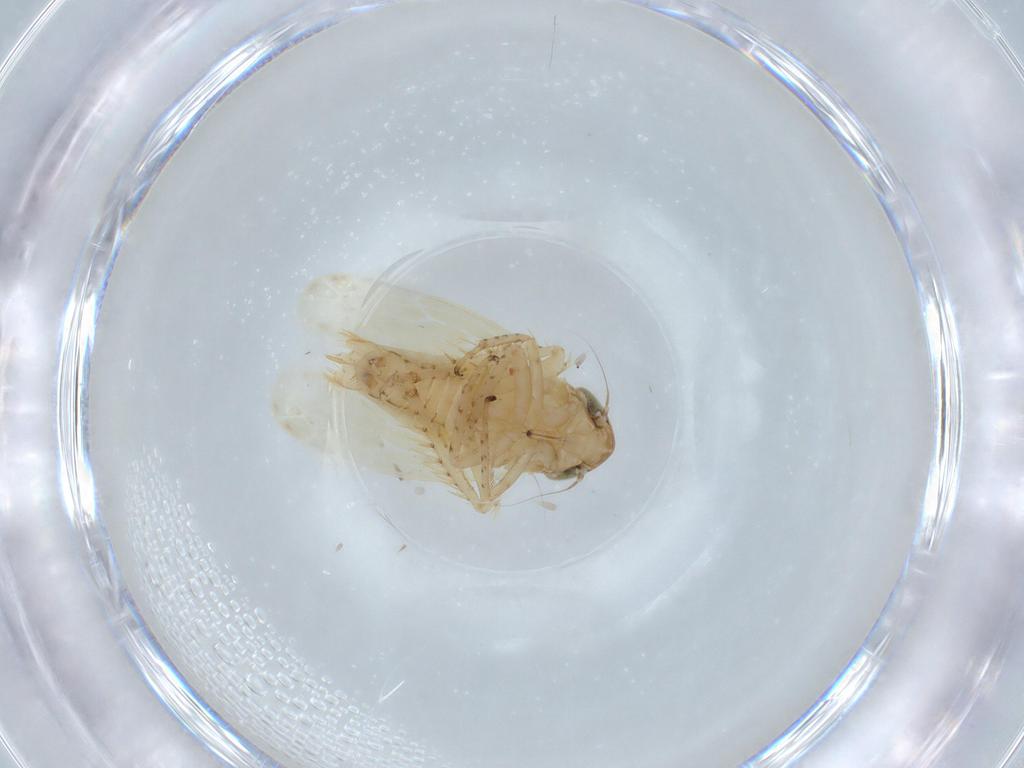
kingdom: Animalia
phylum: Arthropoda
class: Insecta
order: Hemiptera
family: Cicadellidae
